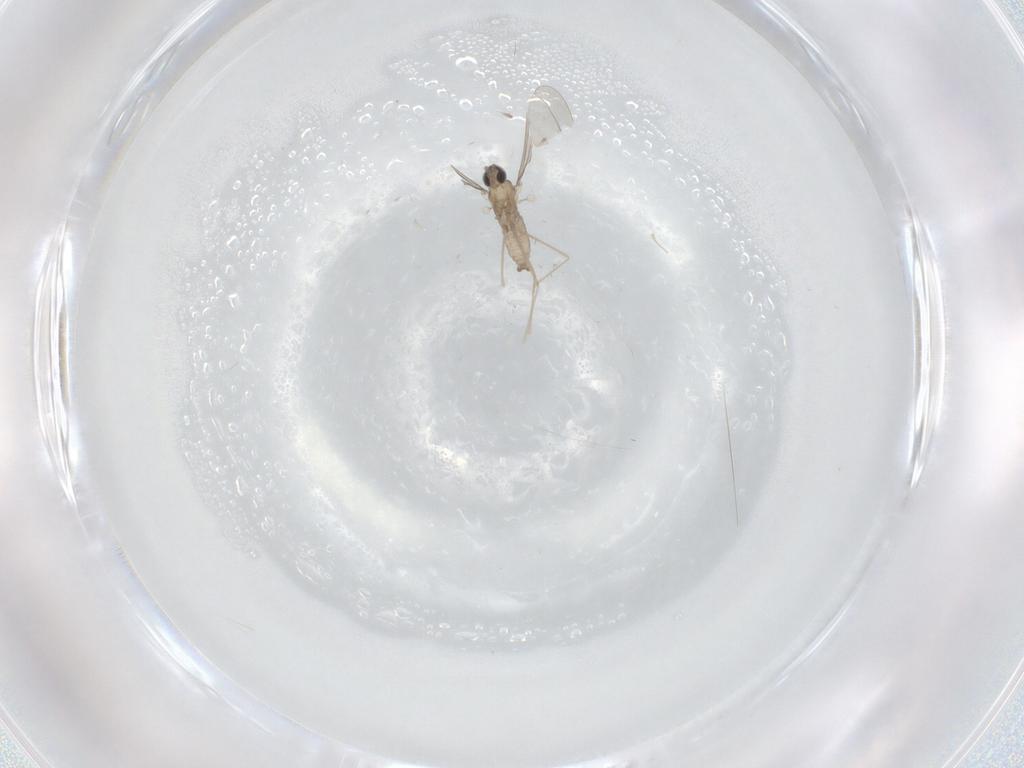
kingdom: Animalia
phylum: Arthropoda
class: Insecta
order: Diptera
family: Cecidomyiidae
